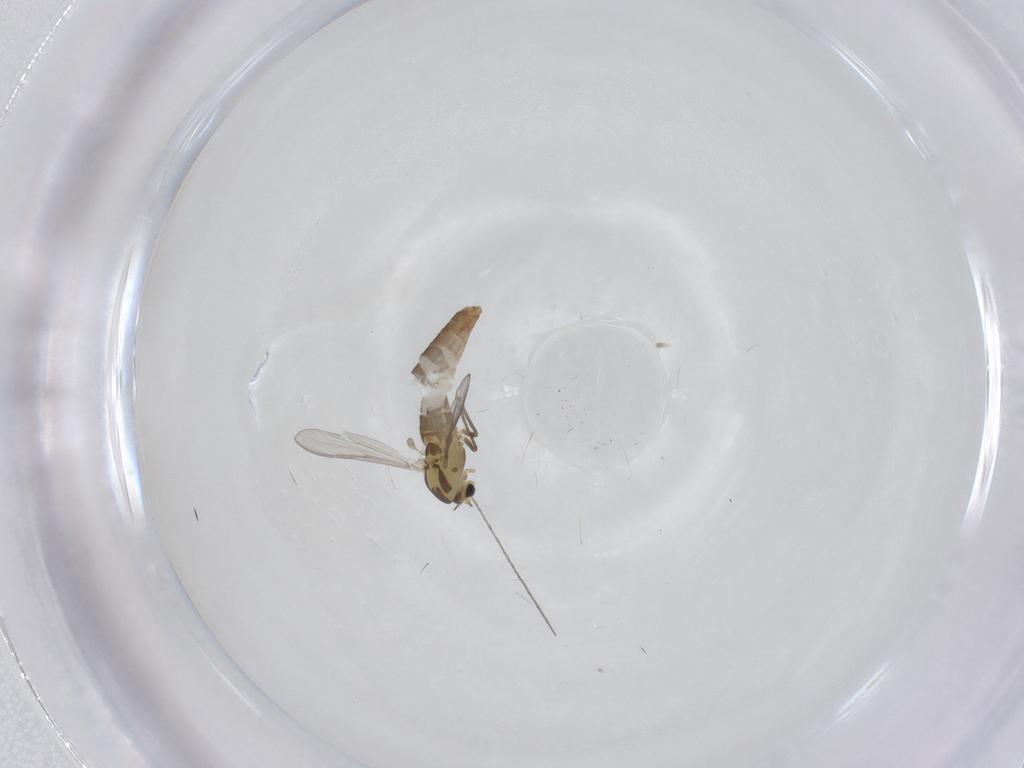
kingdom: Animalia
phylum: Arthropoda
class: Insecta
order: Diptera
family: Chironomidae
